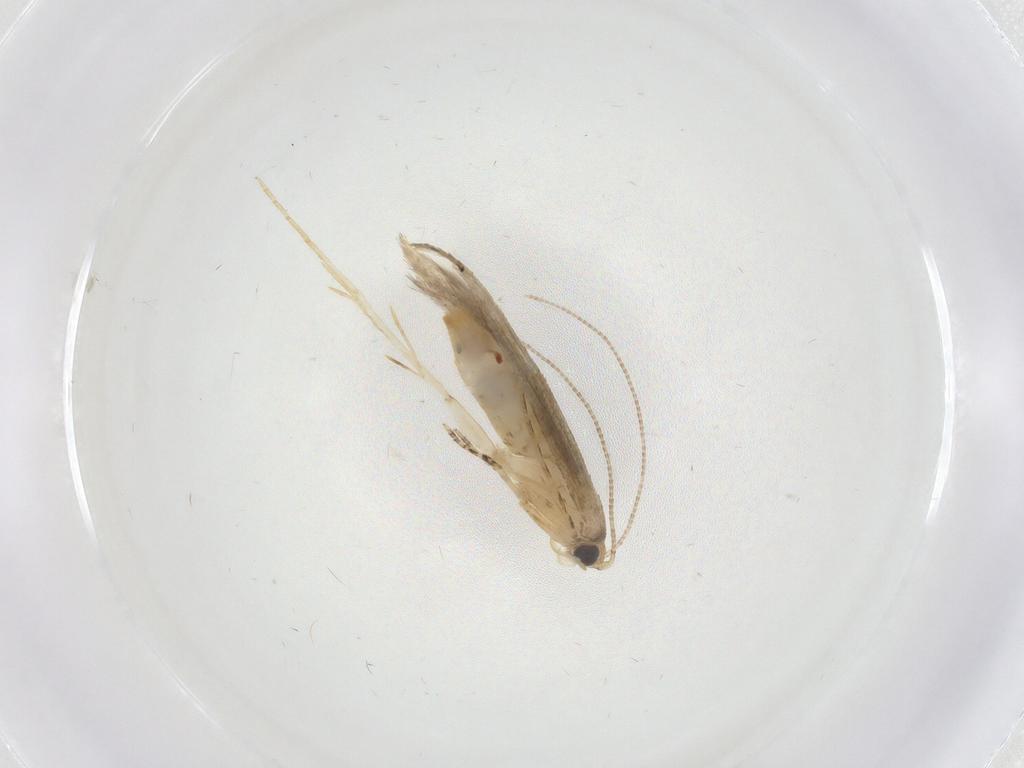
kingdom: Animalia
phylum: Arthropoda
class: Insecta
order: Lepidoptera
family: Tineidae
